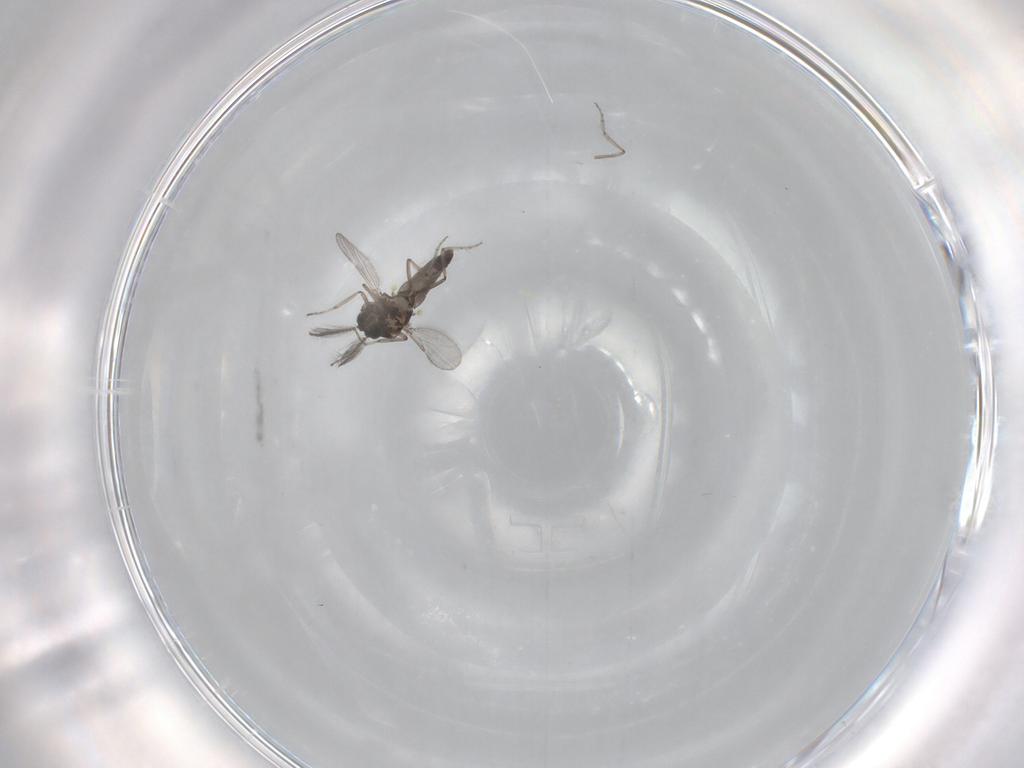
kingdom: Animalia
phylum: Arthropoda
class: Insecta
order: Diptera
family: Ceratopogonidae
